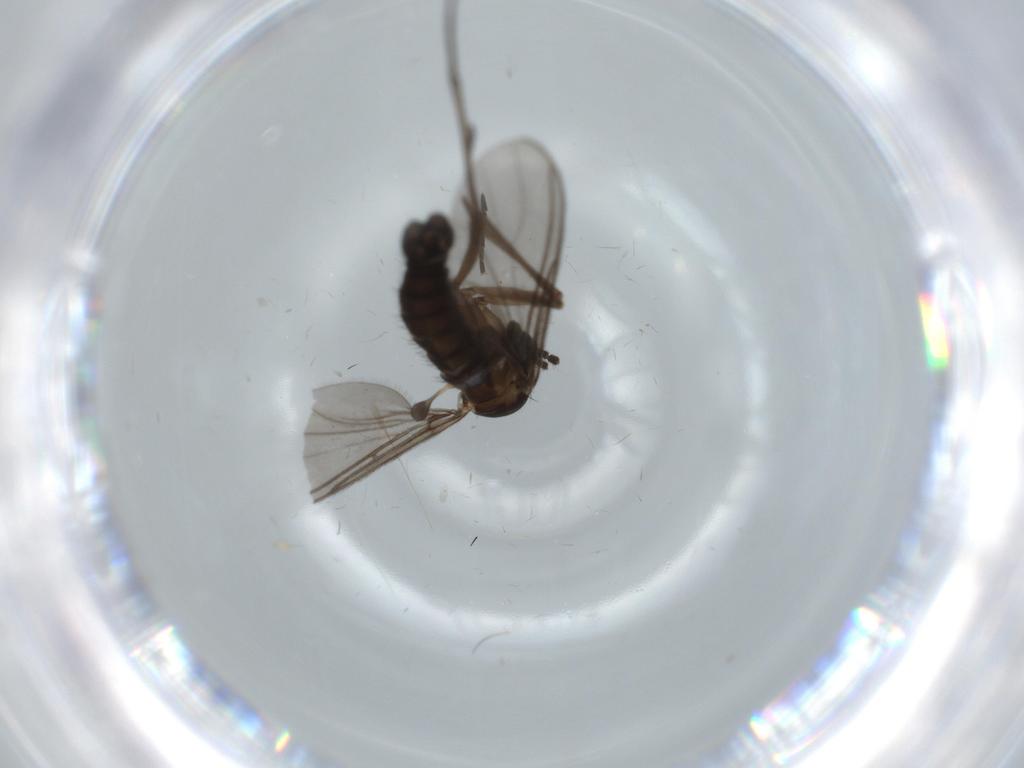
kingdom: Animalia
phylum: Arthropoda
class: Insecta
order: Diptera
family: Sciaridae
